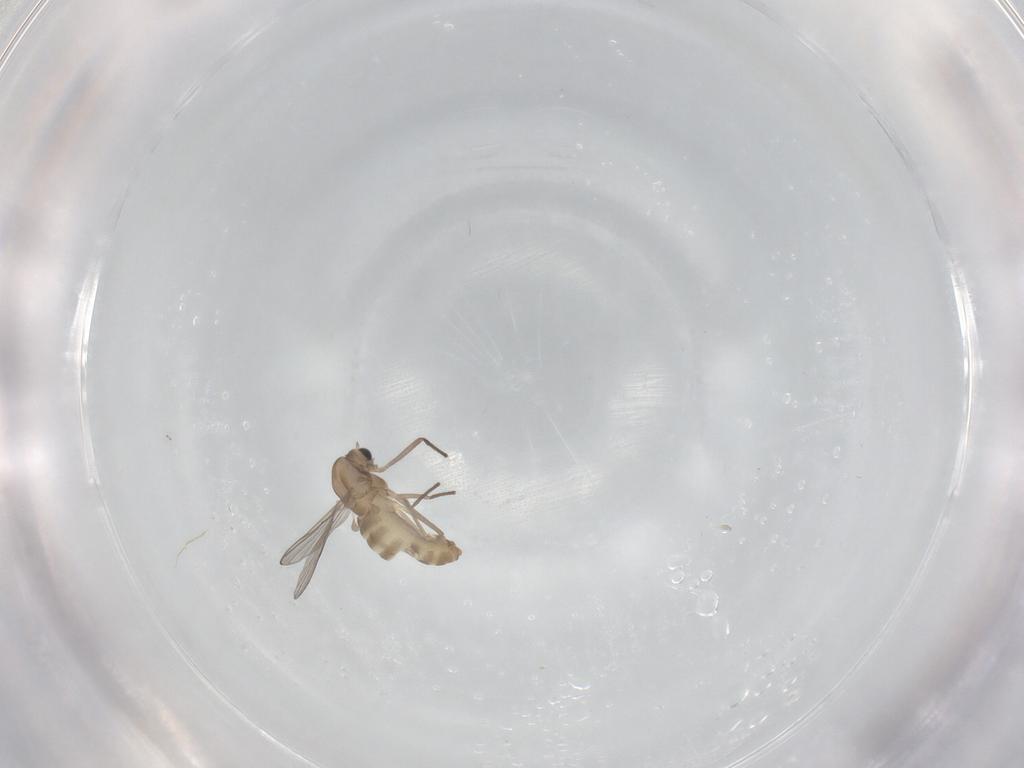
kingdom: Animalia
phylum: Arthropoda
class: Insecta
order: Diptera
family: Chironomidae
